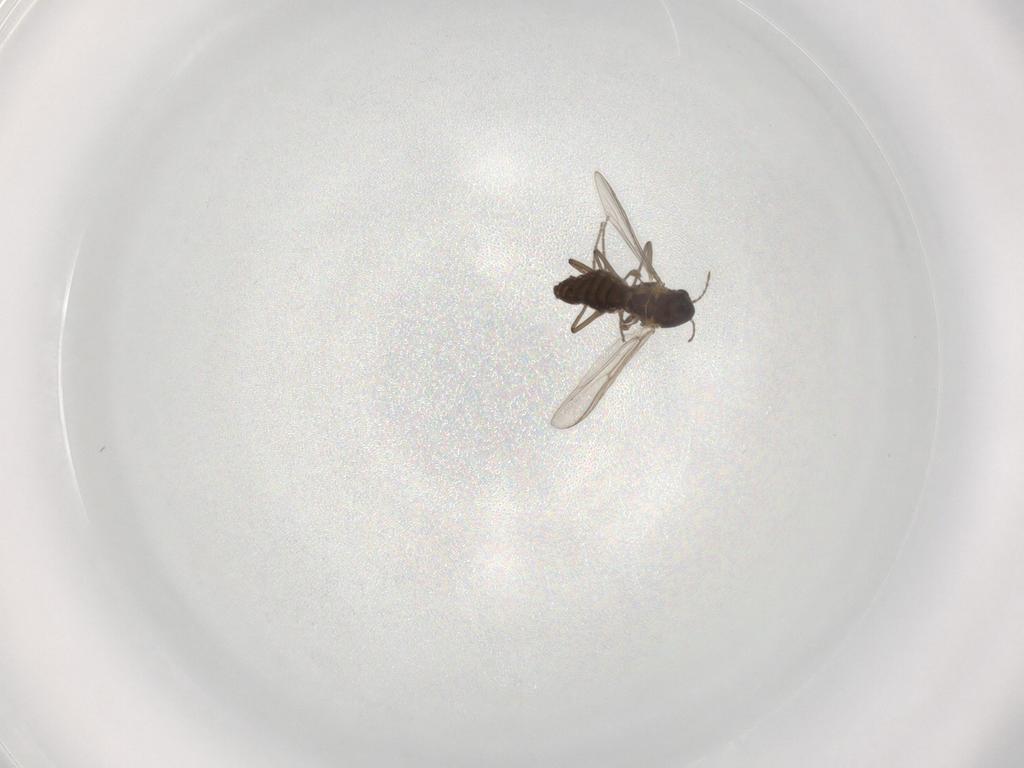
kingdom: Animalia
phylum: Arthropoda
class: Insecta
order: Diptera
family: Chironomidae
